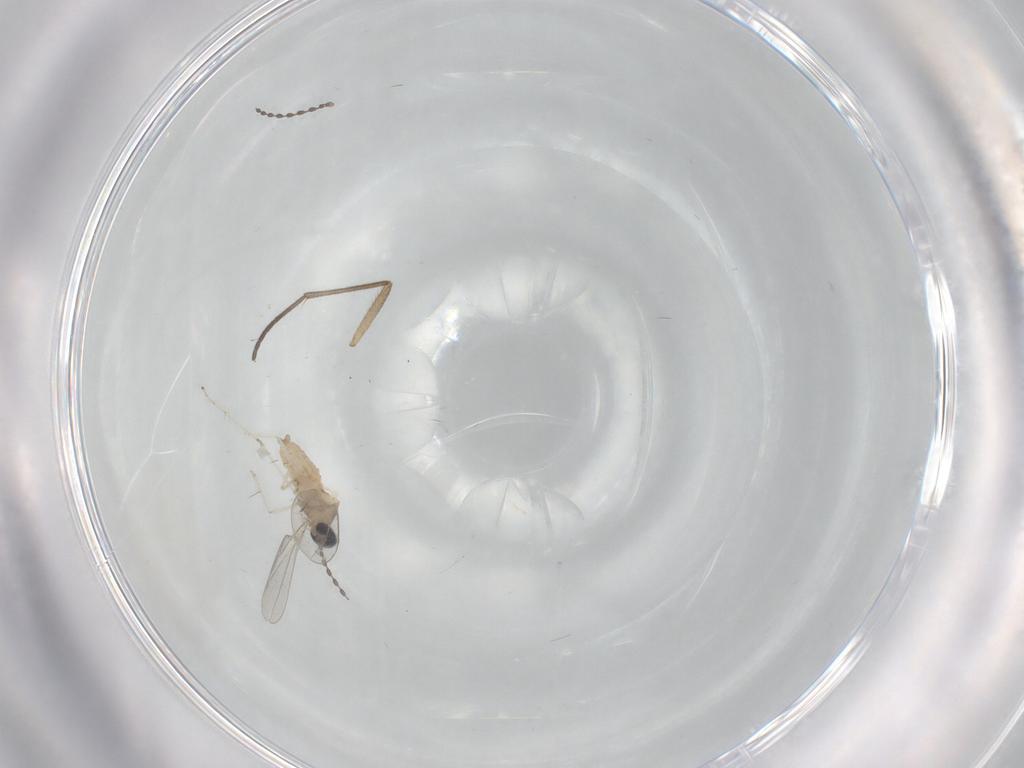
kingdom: Animalia
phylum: Arthropoda
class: Insecta
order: Diptera
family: Cecidomyiidae
